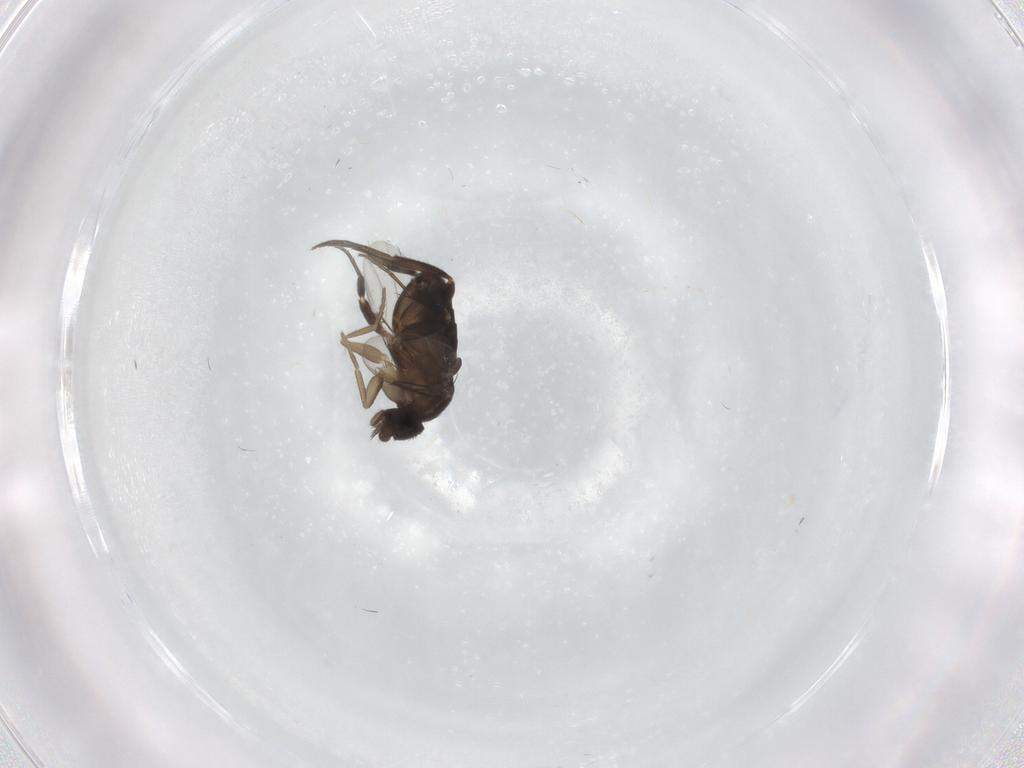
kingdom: Animalia
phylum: Arthropoda
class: Insecta
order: Diptera
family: Phoridae
